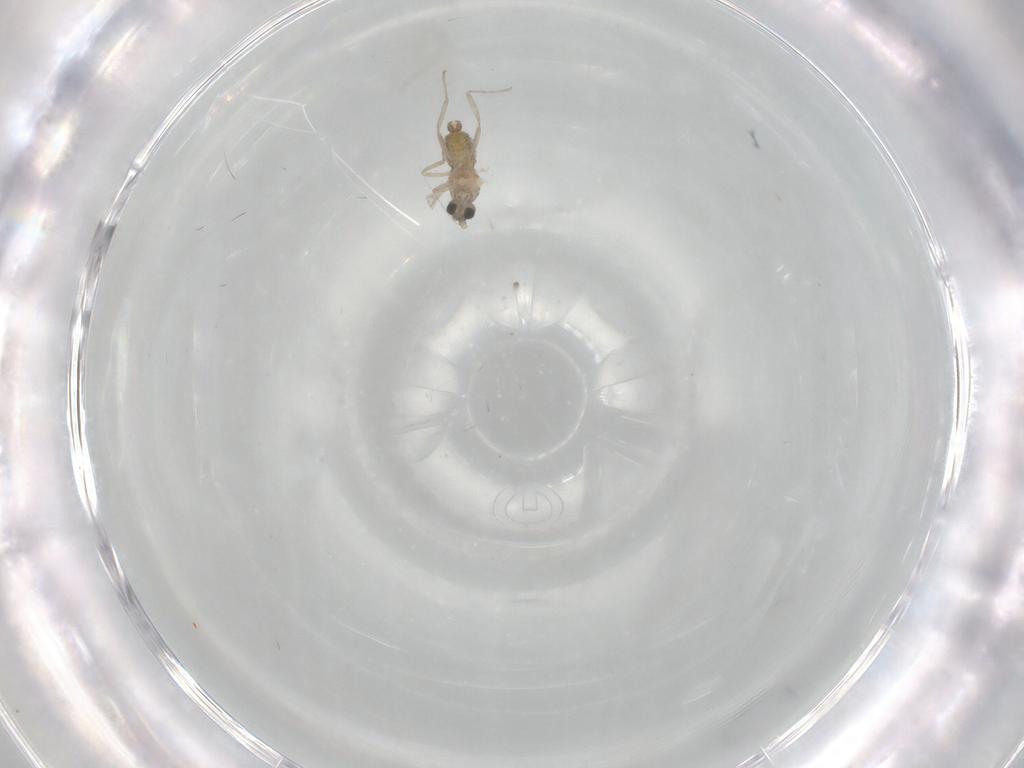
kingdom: Animalia
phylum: Arthropoda
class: Insecta
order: Diptera
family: Cecidomyiidae
